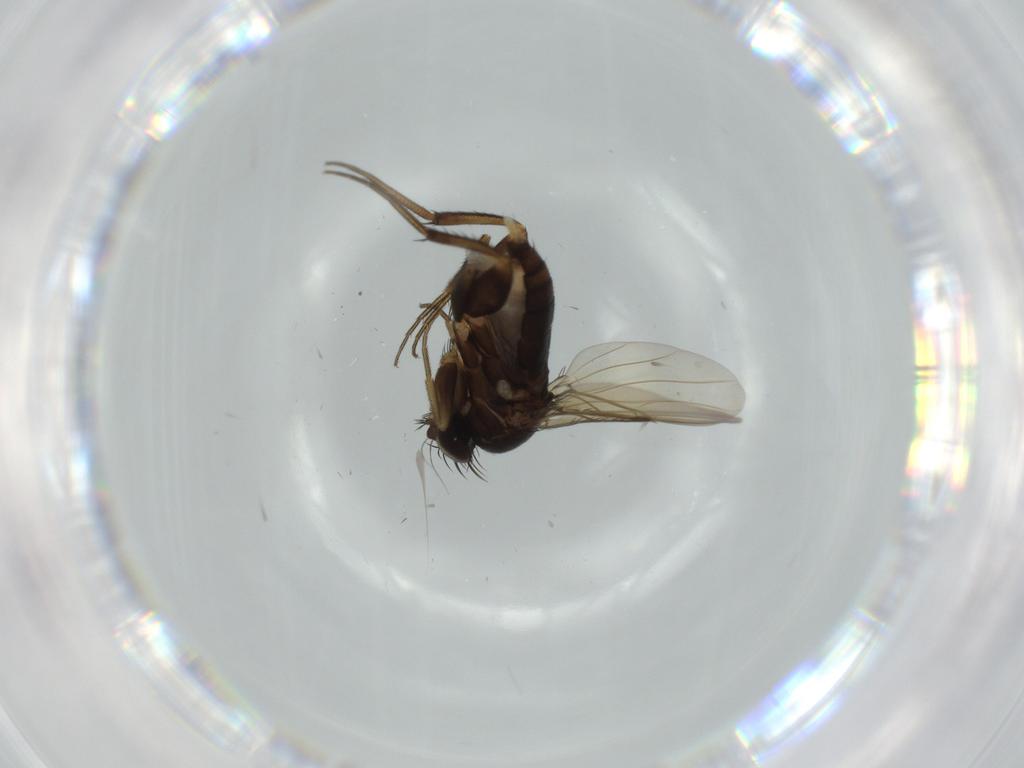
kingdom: Animalia
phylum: Arthropoda
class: Insecta
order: Diptera
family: Phoridae
